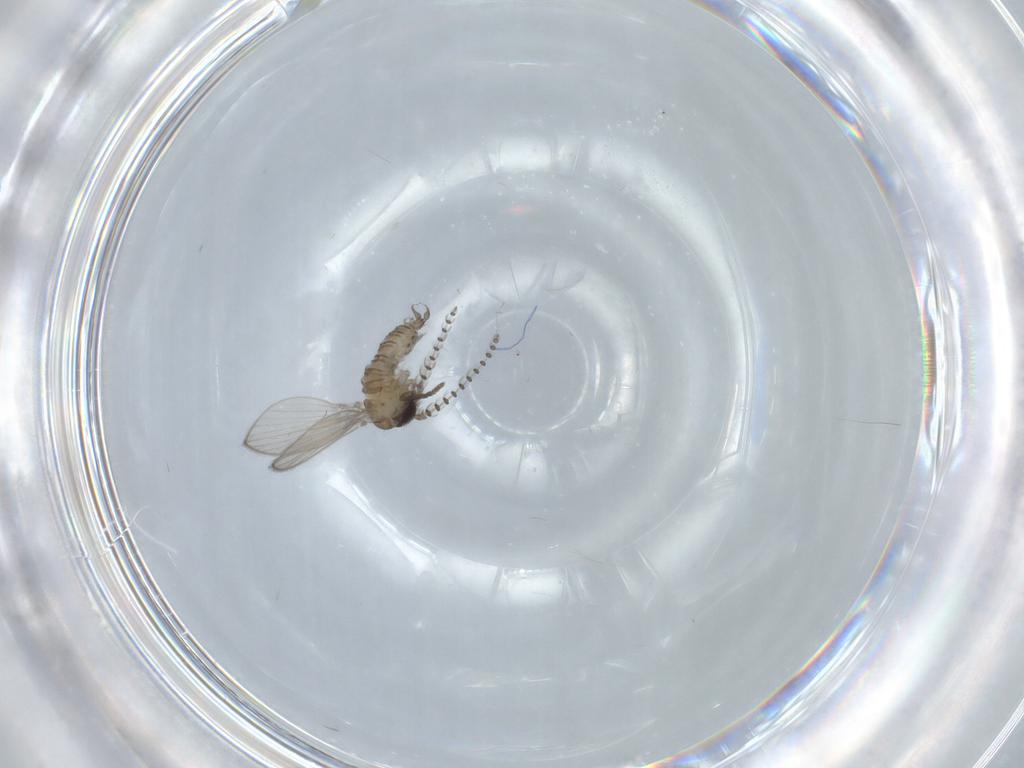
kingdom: Animalia
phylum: Arthropoda
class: Insecta
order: Diptera
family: Psychodidae
